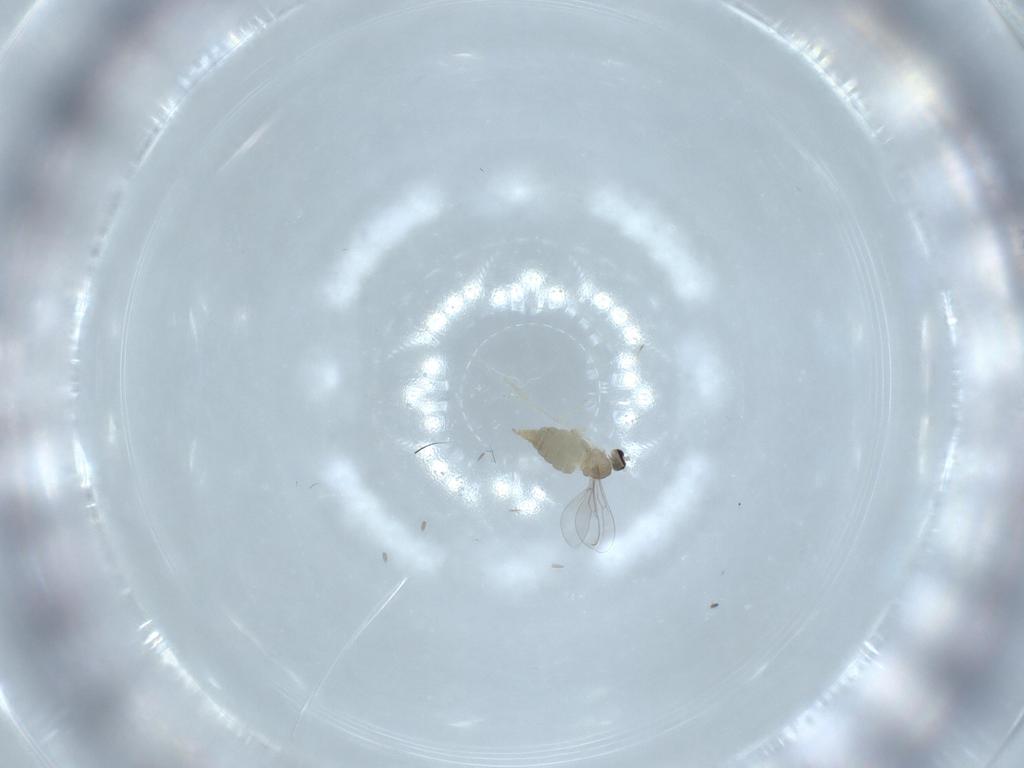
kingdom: Animalia
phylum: Arthropoda
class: Insecta
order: Diptera
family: Cecidomyiidae
